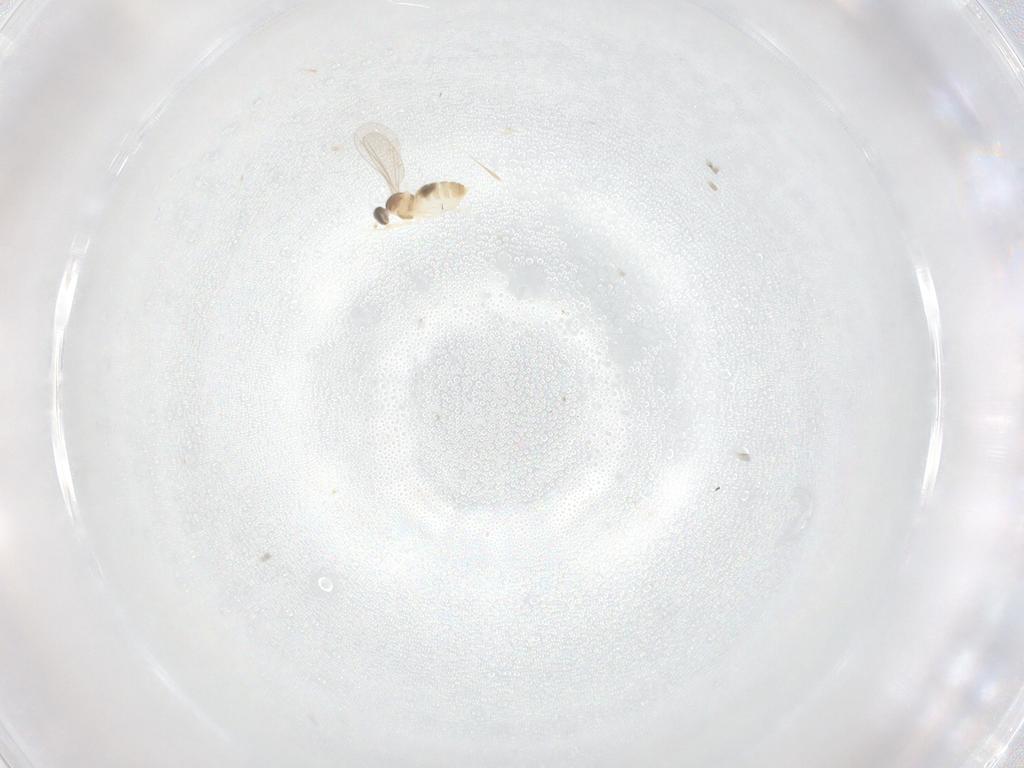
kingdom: Animalia
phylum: Arthropoda
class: Insecta
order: Diptera
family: Cecidomyiidae
